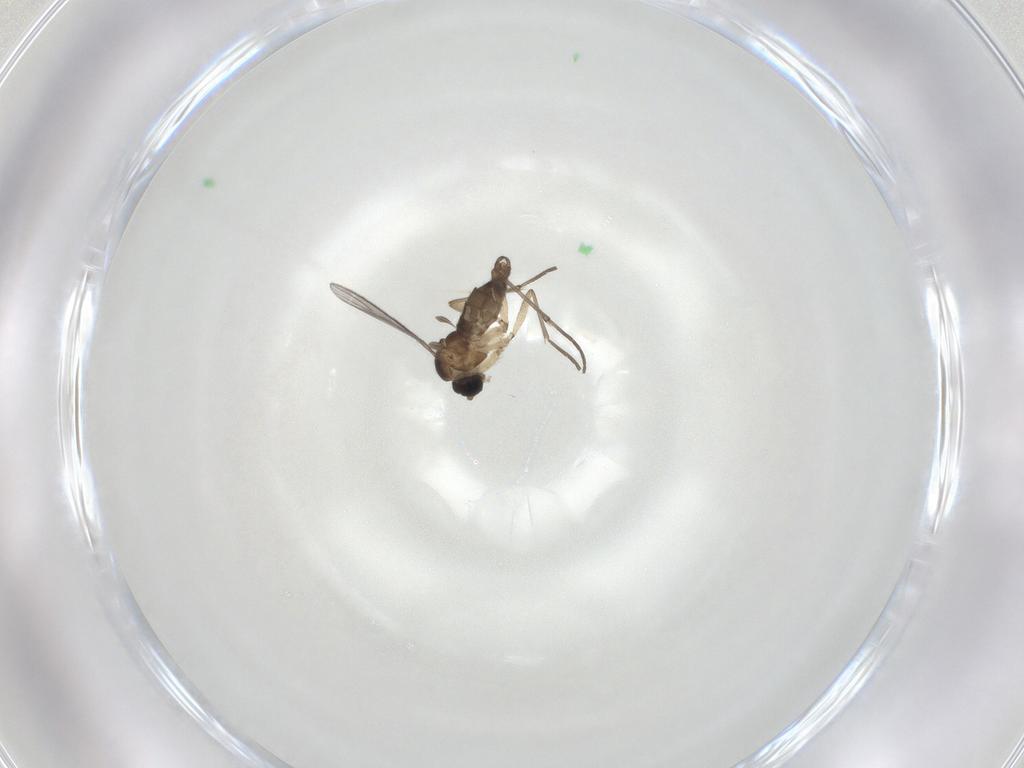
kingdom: Animalia
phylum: Arthropoda
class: Insecta
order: Diptera
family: Sciaridae
